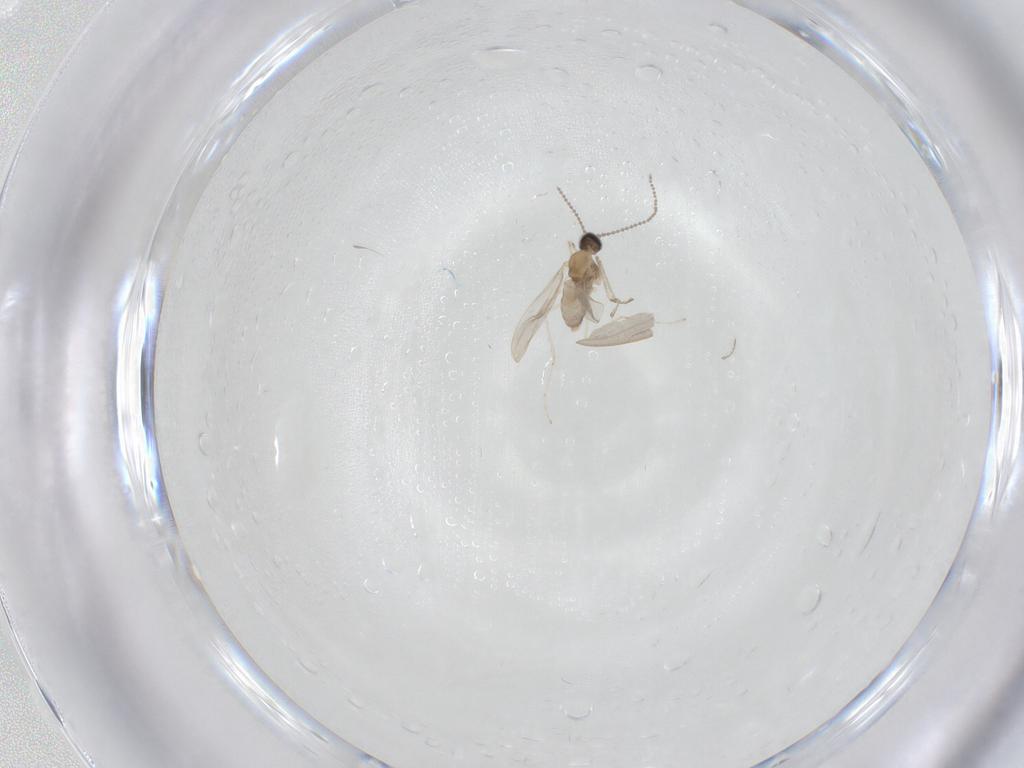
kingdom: Animalia
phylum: Arthropoda
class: Insecta
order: Diptera
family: Cecidomyiidae
